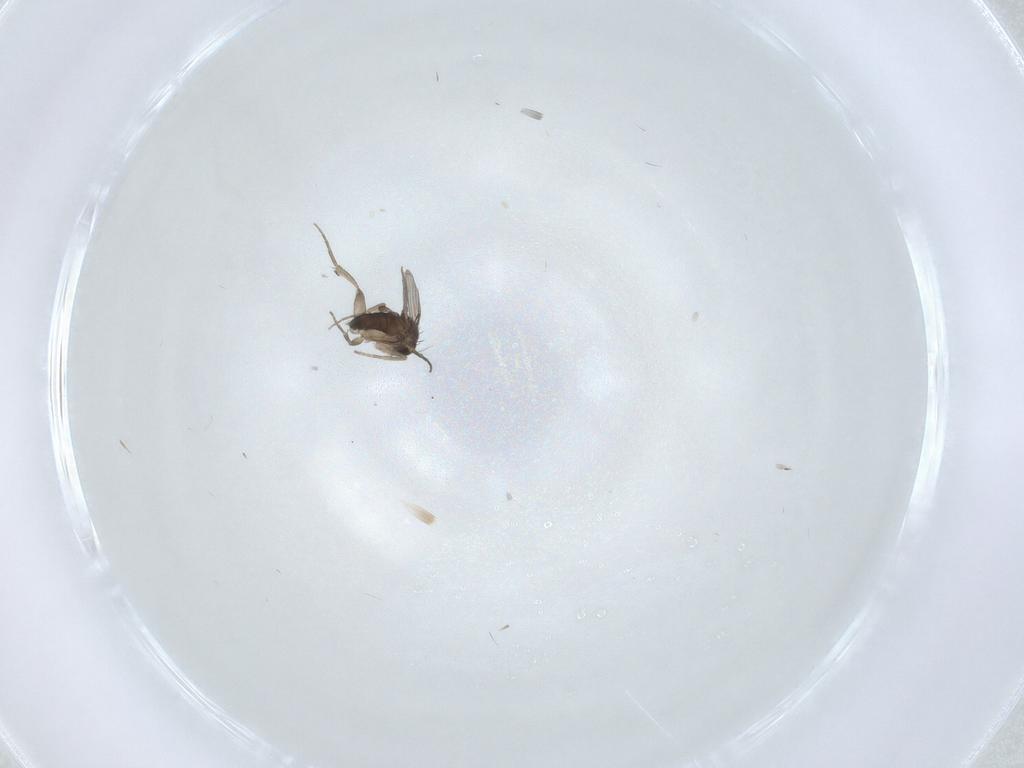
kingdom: Animalia
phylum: Arthropoda
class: Insecta
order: Diptera
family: Phoridae
